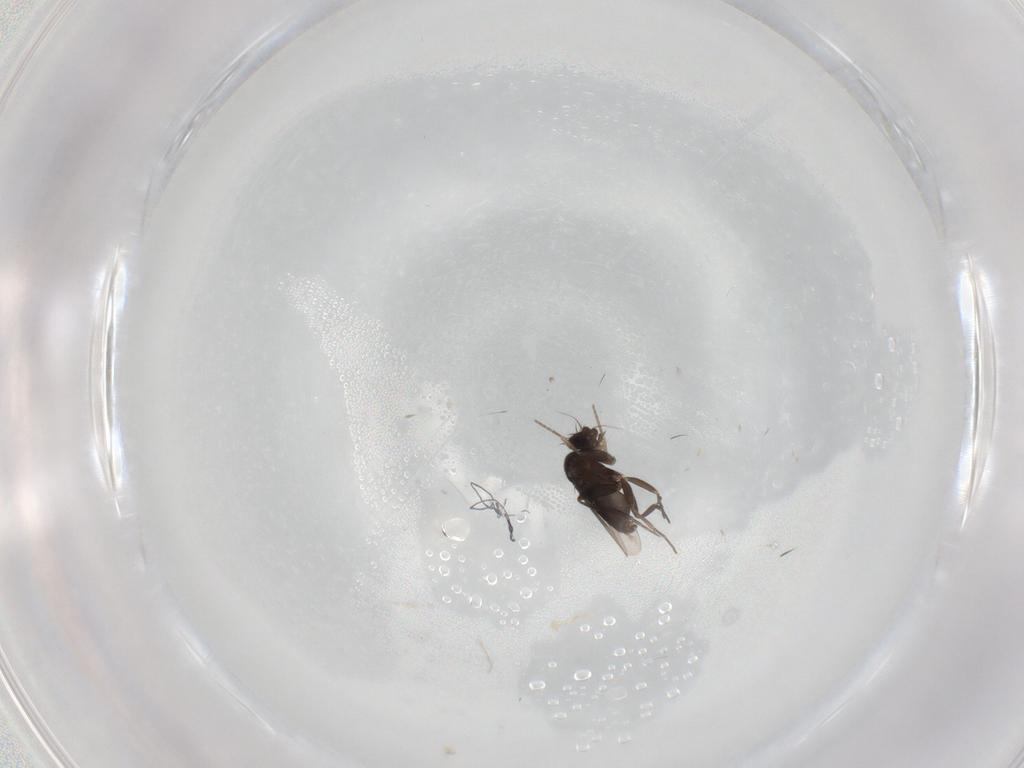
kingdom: Animalia
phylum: Arthropoda
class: Insecta
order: Diptera
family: Phoridae
